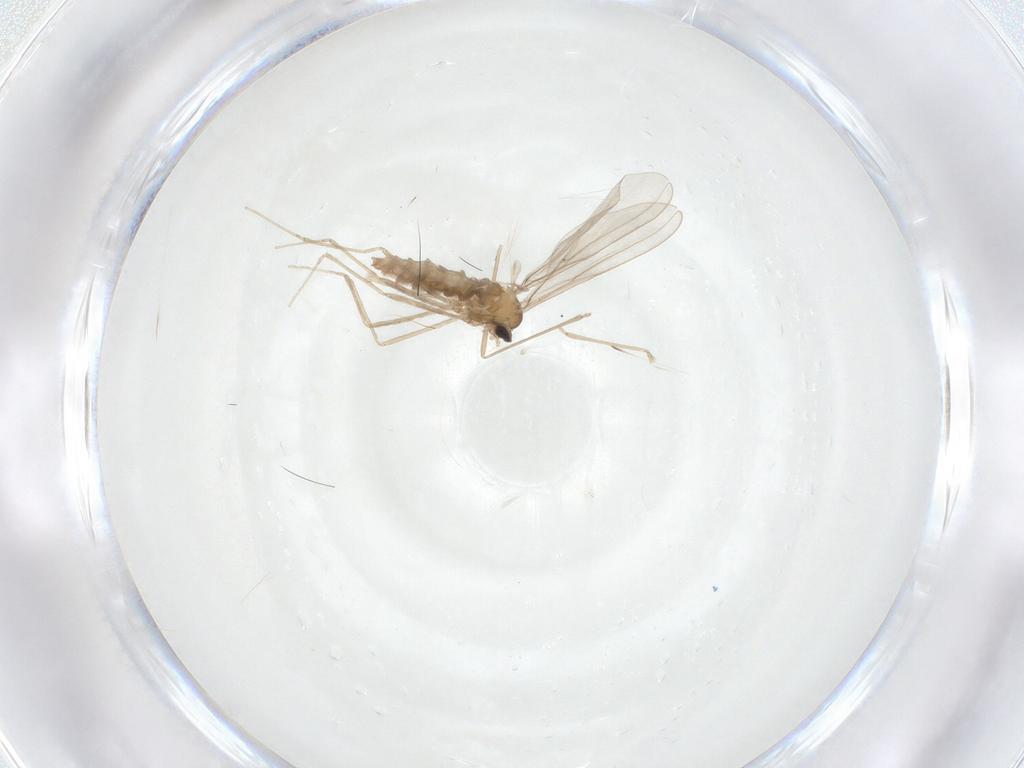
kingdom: Animalia
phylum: Arthropoda
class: Insecta
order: Diptera
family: Cecidomyiidae
